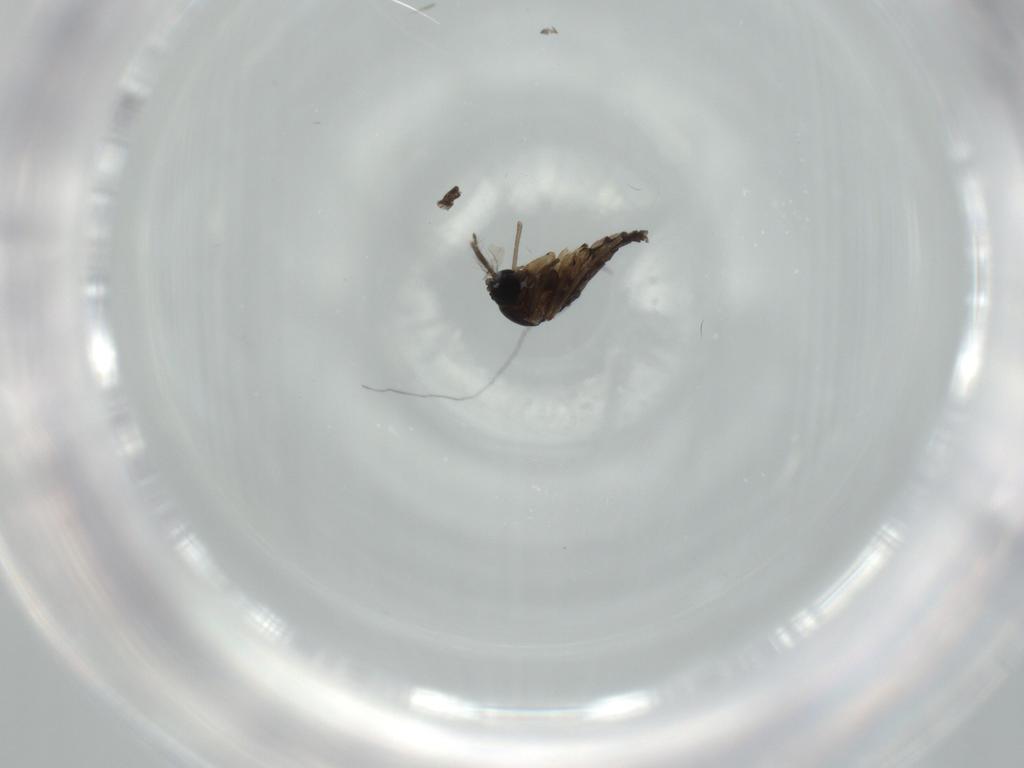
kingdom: Animalia
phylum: Arthropoda
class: Insecta
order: Diptera
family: Sciaridae
